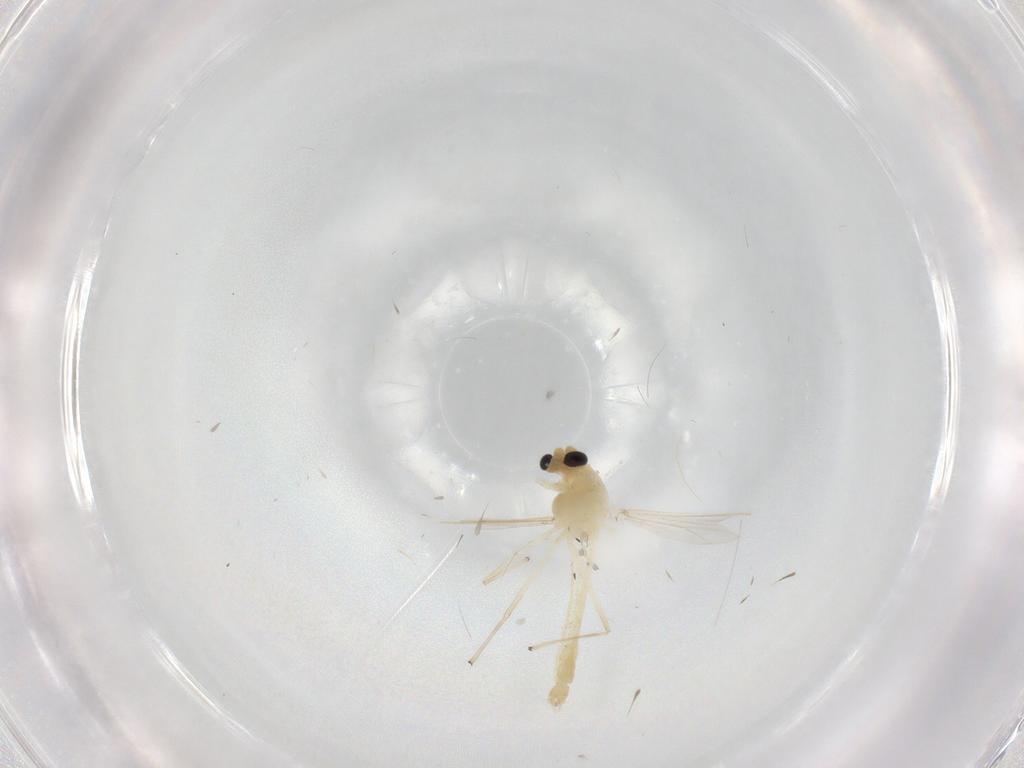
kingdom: Animalia
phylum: Arthropoda
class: Insecta
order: Diptera
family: Chironomidae
